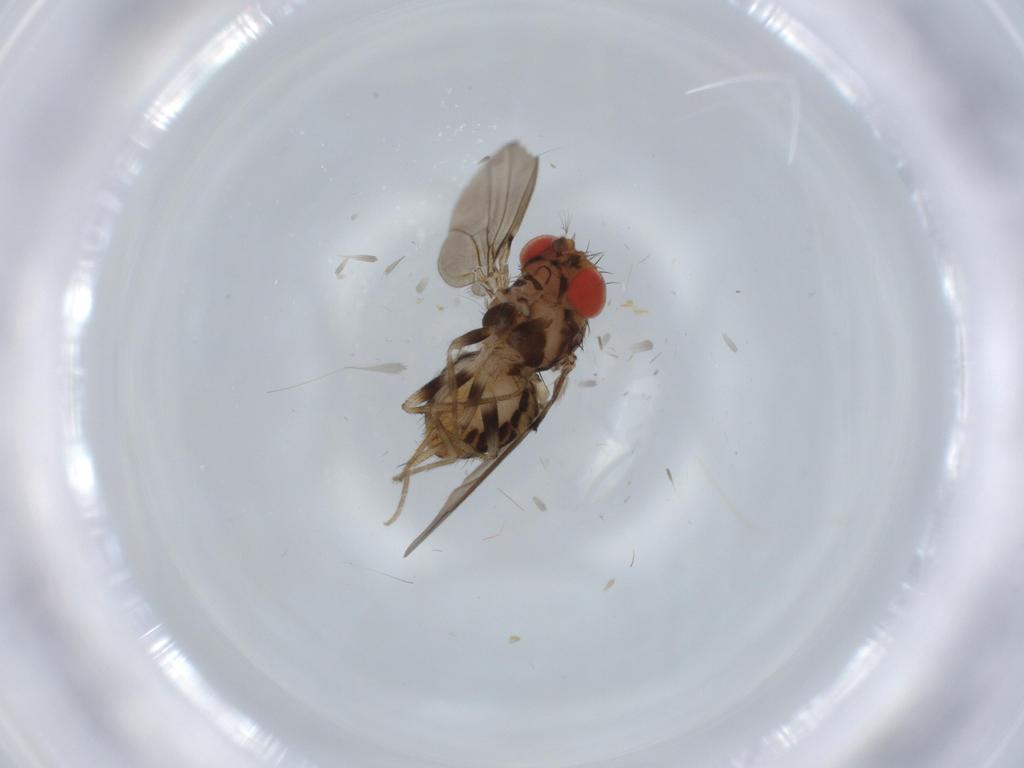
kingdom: Animalia
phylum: Arthropoda
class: Insecta
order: Diptera
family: Drosophilidae
